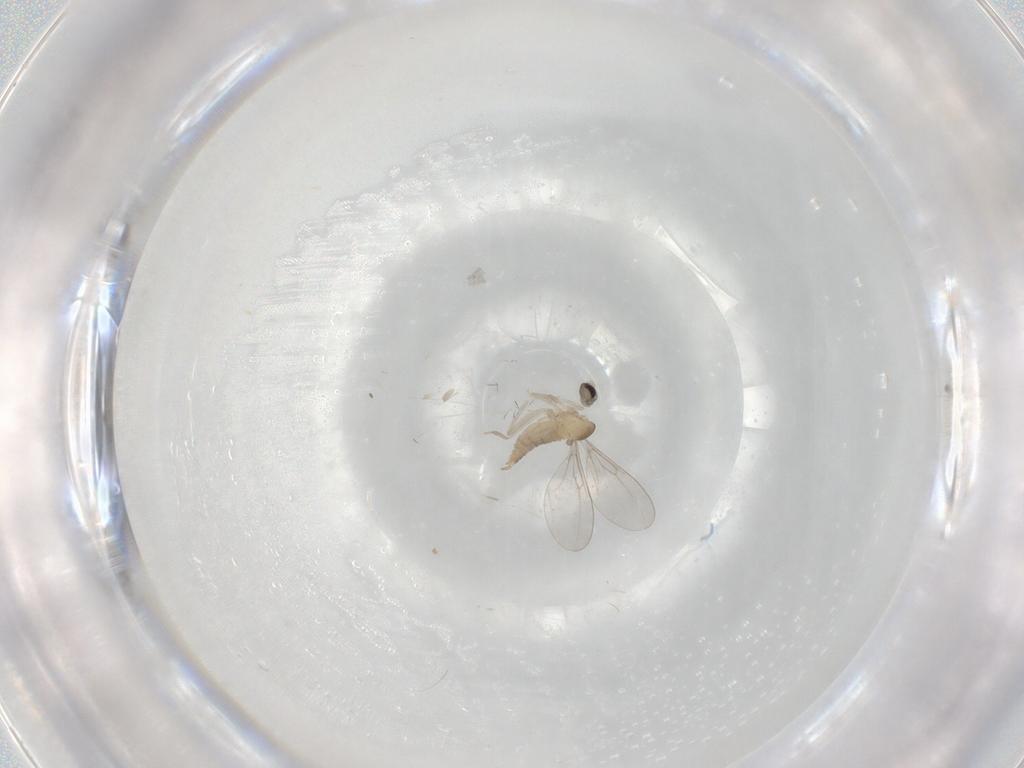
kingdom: Animalia
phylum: Arthropoda
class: Insecta
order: Diptera
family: Cecidomyiidae
